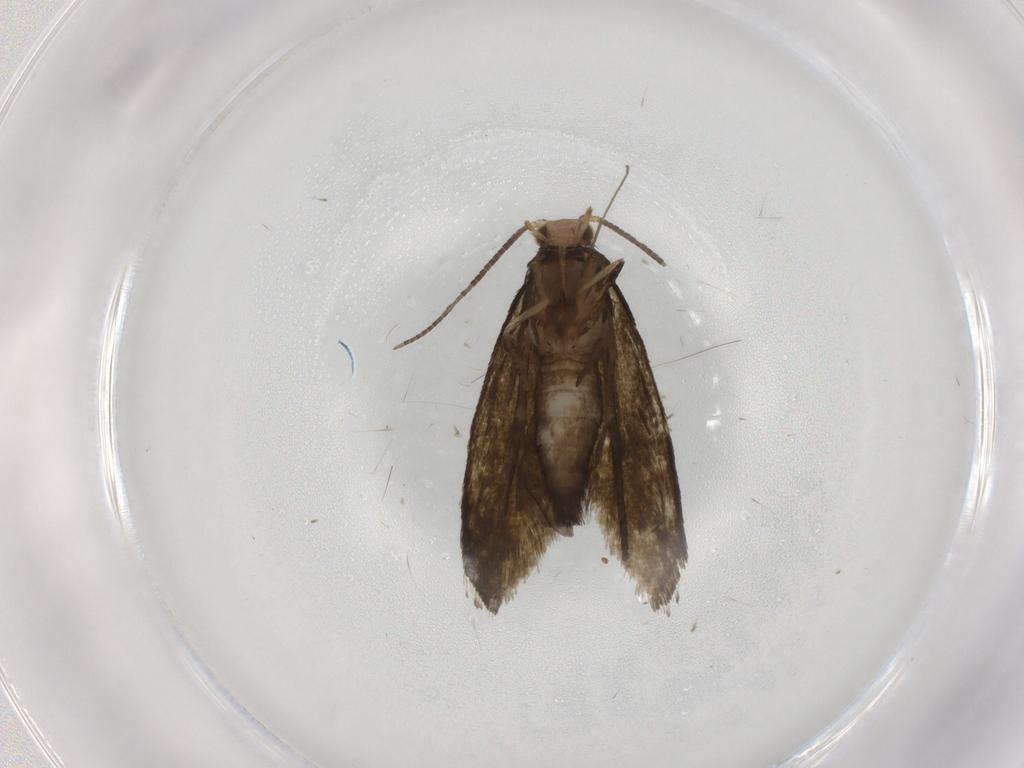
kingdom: Animalia
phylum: Arthropoda
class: Insecta
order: Lepidoptera
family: Tineidae
